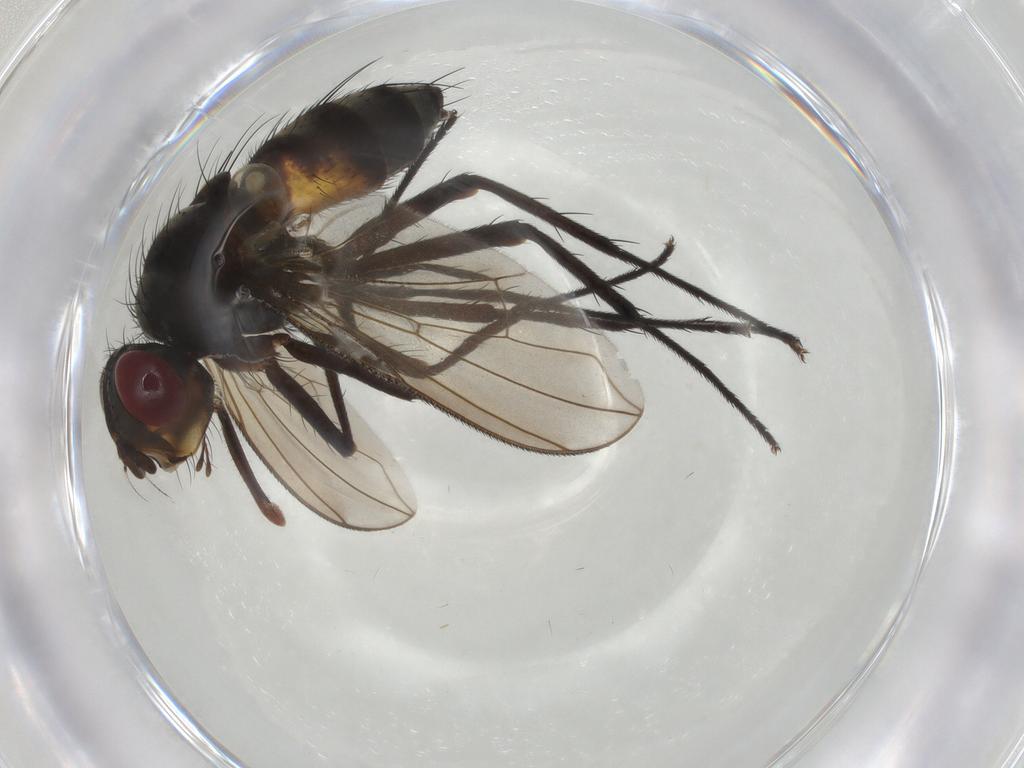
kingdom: Animalia
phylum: Arthropoda
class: Insecta
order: Diptera
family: Tachinidae
